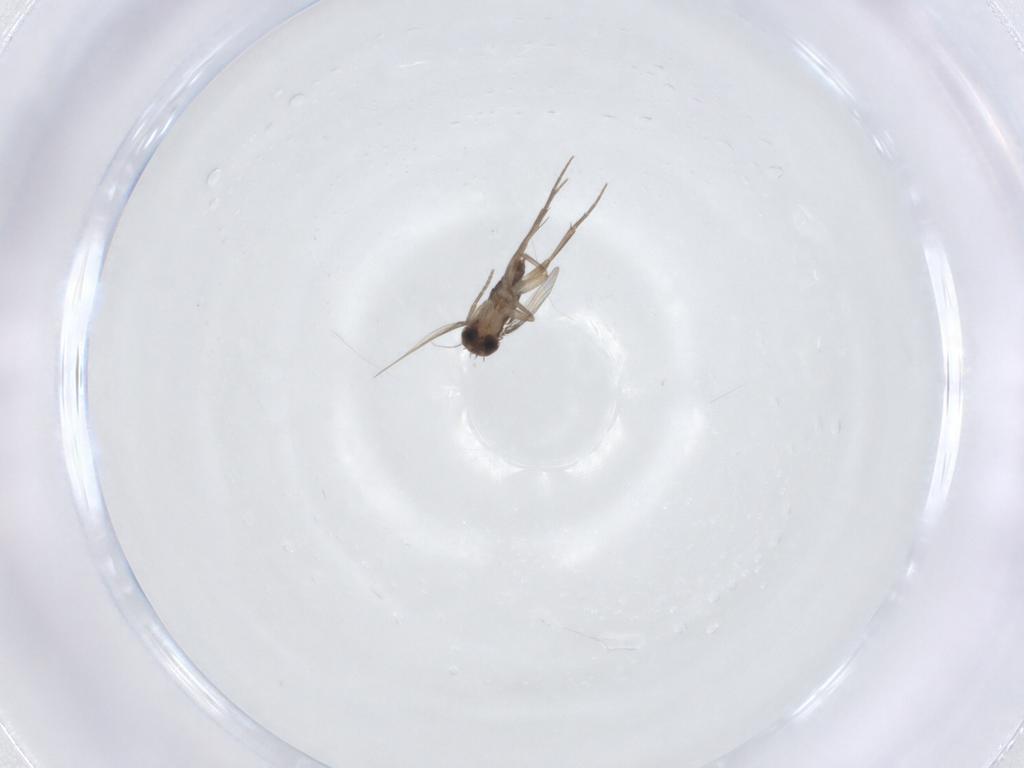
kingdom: Animalia
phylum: Arthropoda
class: Insecta
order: Diptera
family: Phoridae
